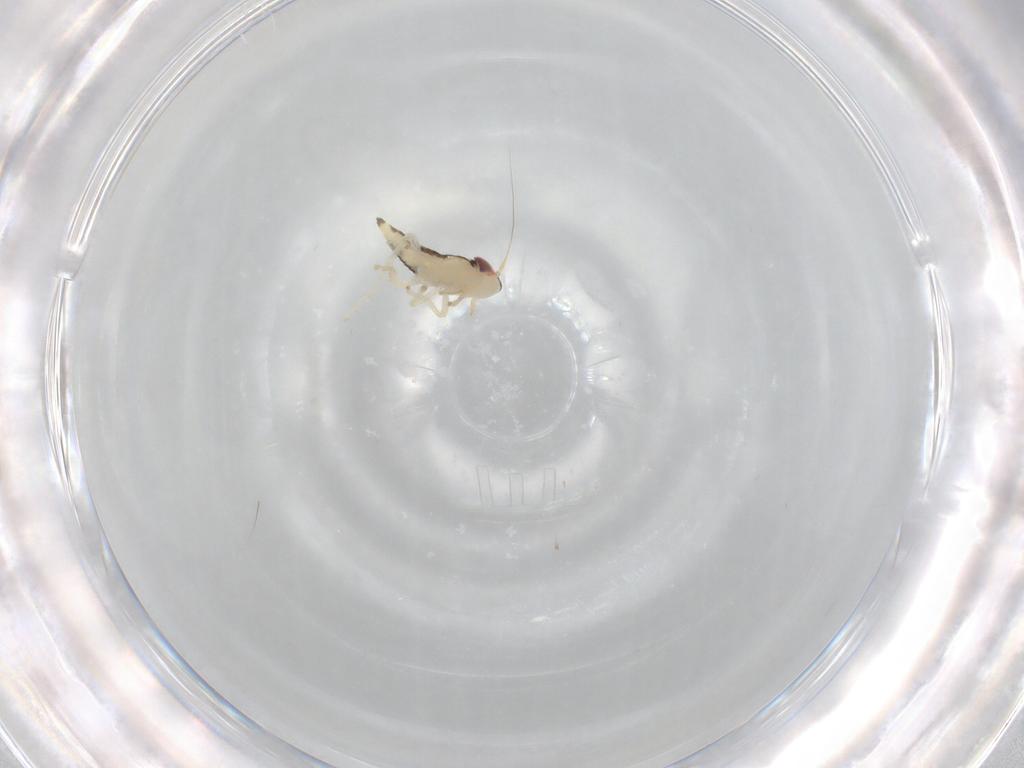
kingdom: Animalia
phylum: Arthropoda
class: Insecta
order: Hemiptera
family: Cicadellidae
